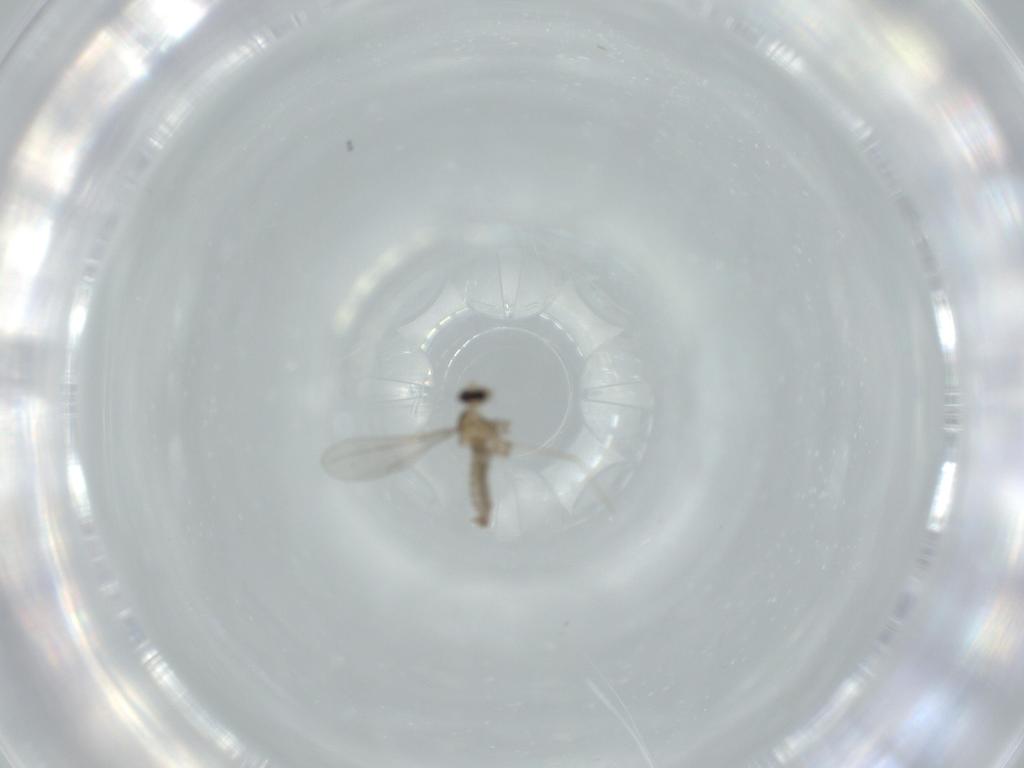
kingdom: Animalia
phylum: Arthropoda
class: Insecta
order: Diptera
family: Cecidomyiidae
